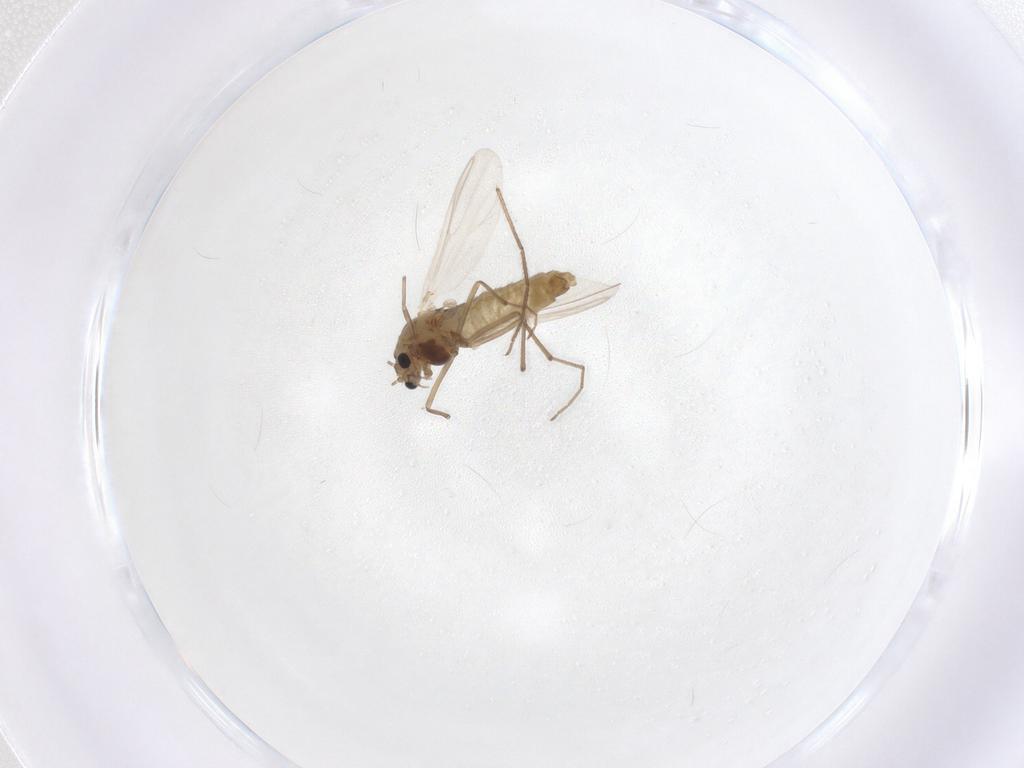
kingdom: Animalia
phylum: Arthropoda
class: Insecta
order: Diptera
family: Chironomidae
